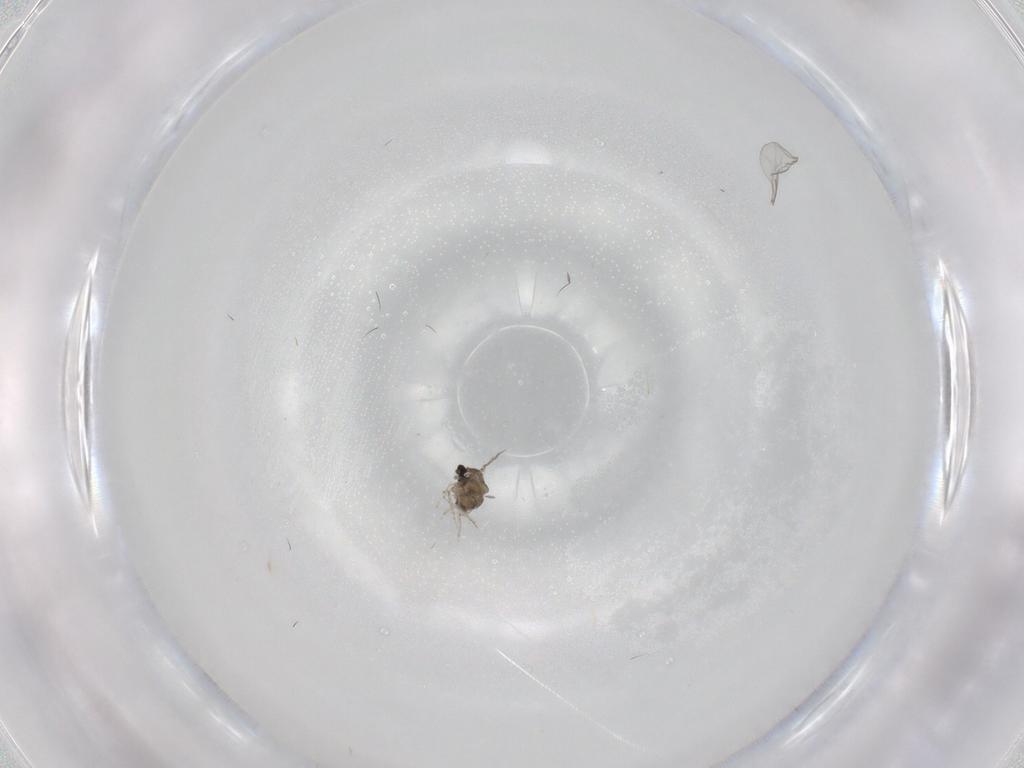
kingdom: Animalia
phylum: Arthropoda
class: Insecta
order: Diptera
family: Cecidomyiidae
